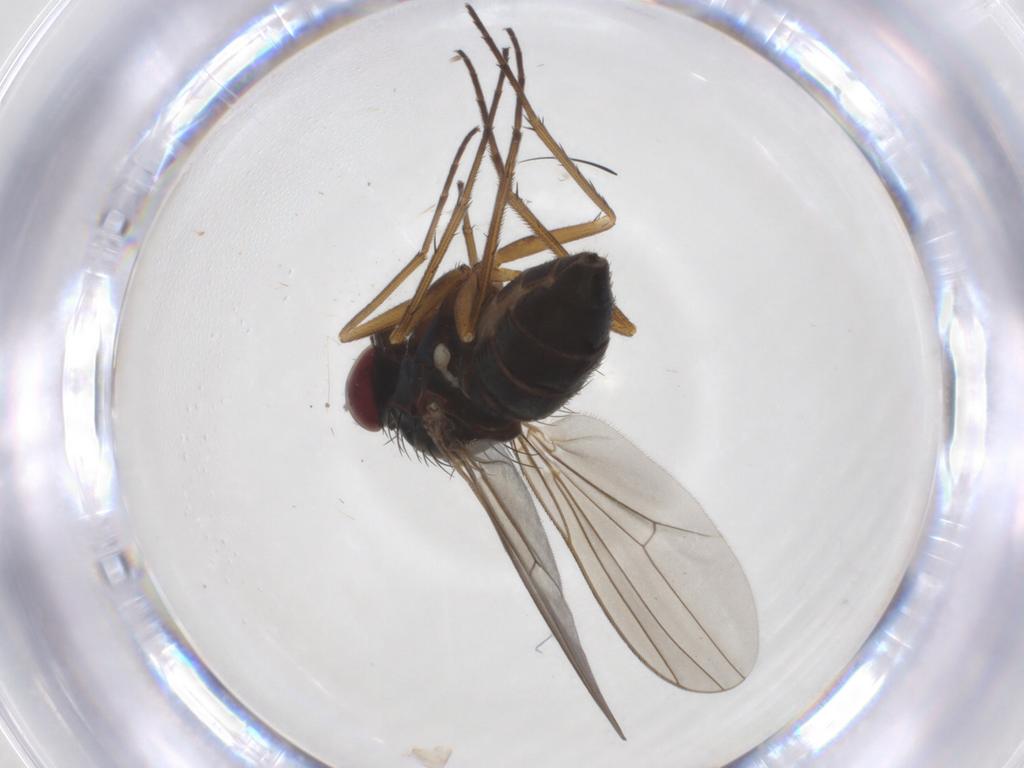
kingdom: Animalia
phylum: Arthropoda
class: Insecta
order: Diptera
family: Dolichopodidae
